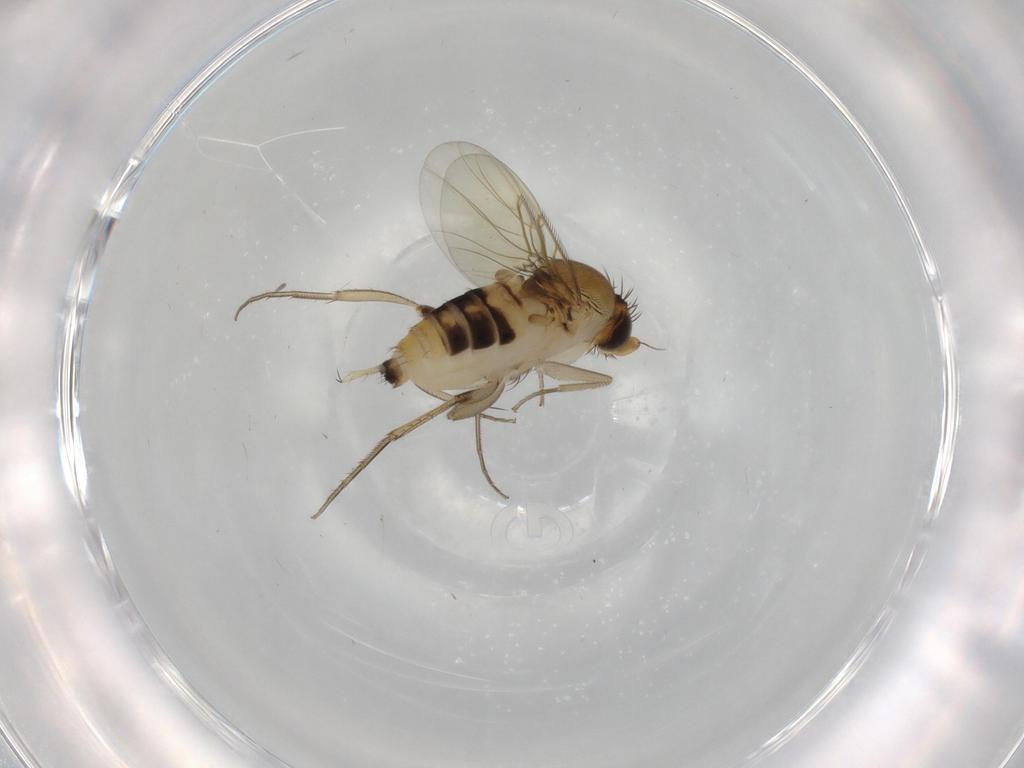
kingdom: Animalia
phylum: Arthropoda
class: Insecta
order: Diptera
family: Phoridae
